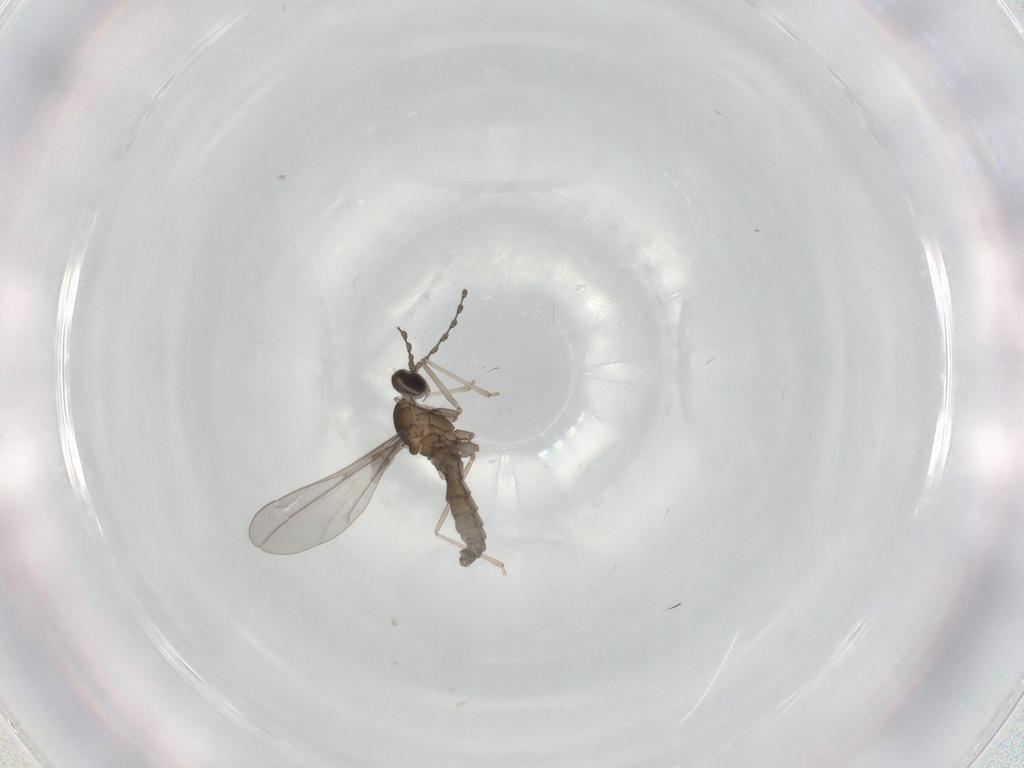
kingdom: Animalia
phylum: Arthropoda
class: Insecta
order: Diptera
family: Cecidomyiidae
